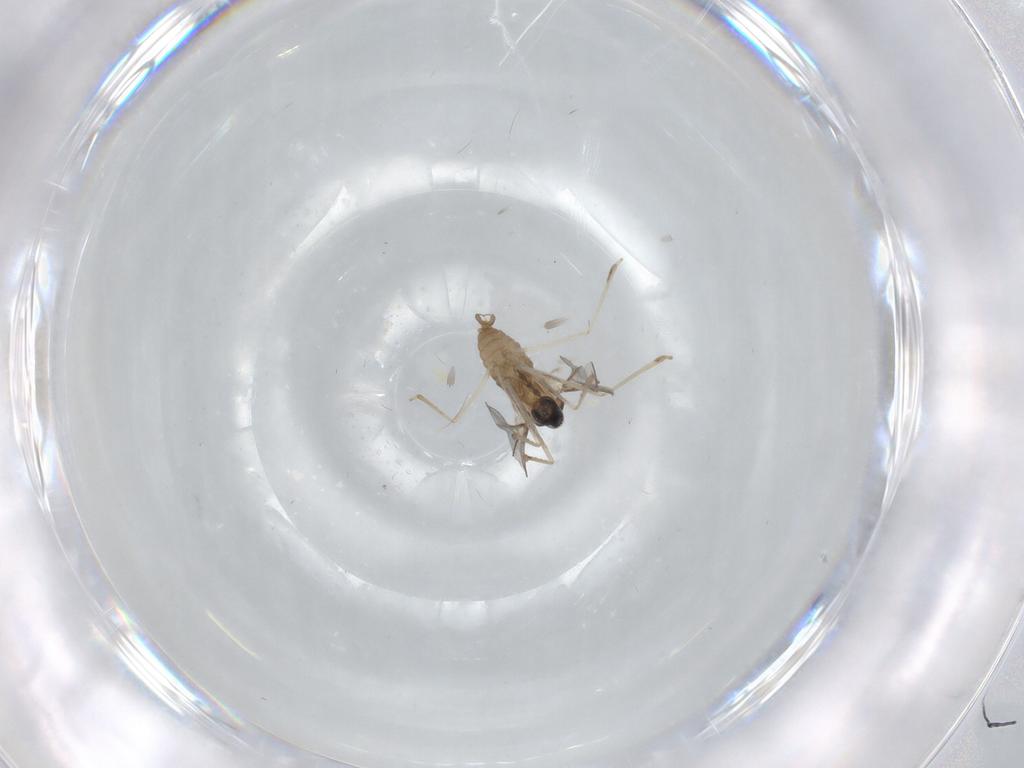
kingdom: Animalia
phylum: Arthropoda
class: Insecta
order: Diptera
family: Cecidomyiidae
